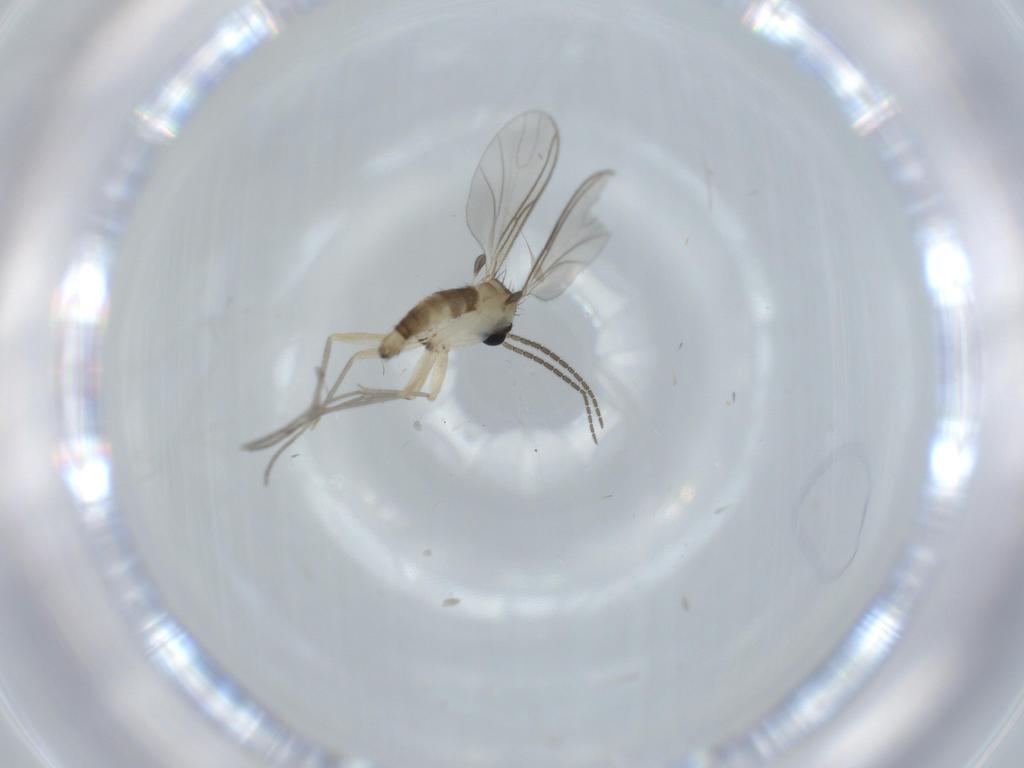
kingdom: Animalia
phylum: Arthropoda
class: Insecta
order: Diptera
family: Sciaridae
